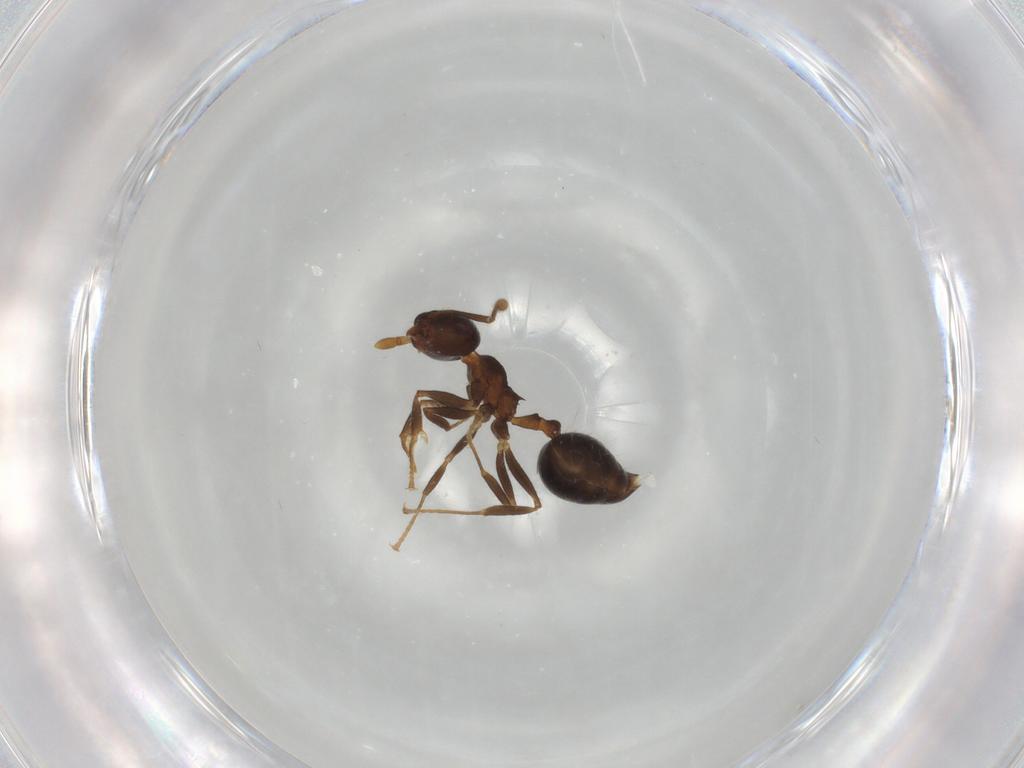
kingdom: Animalia
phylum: Arthropoda
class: Insecta
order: Hymenoptera
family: Formicidae
